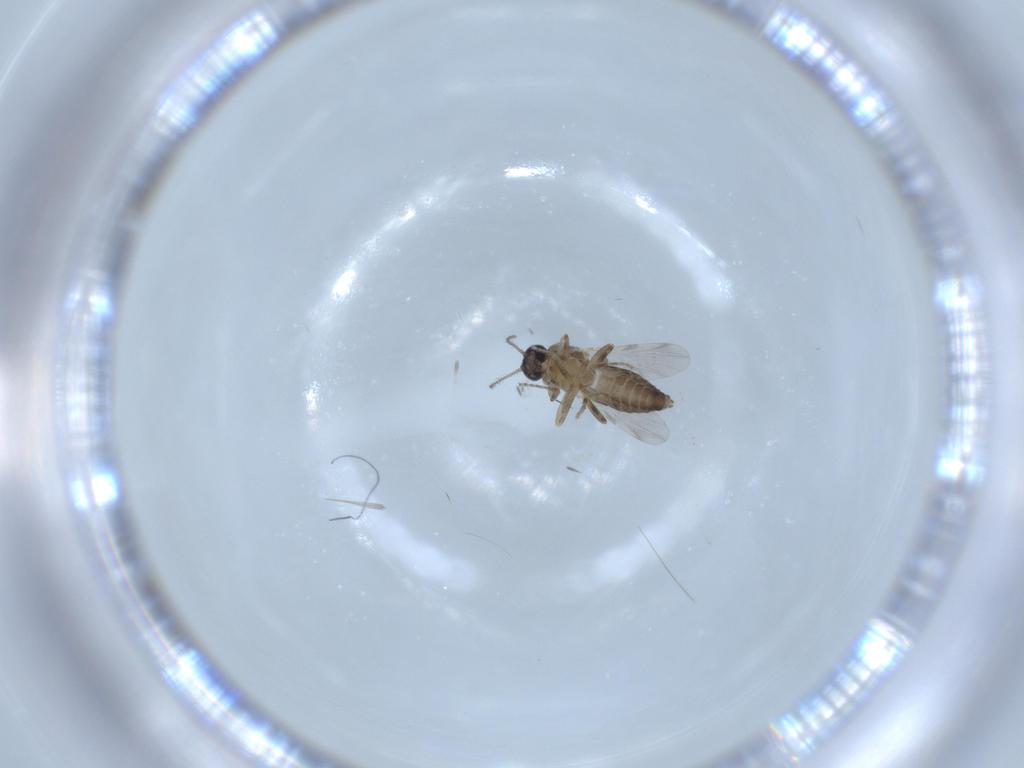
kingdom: Animalia
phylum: Arthropoda
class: Insecta
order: Diptera
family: Ceratopogonidae
